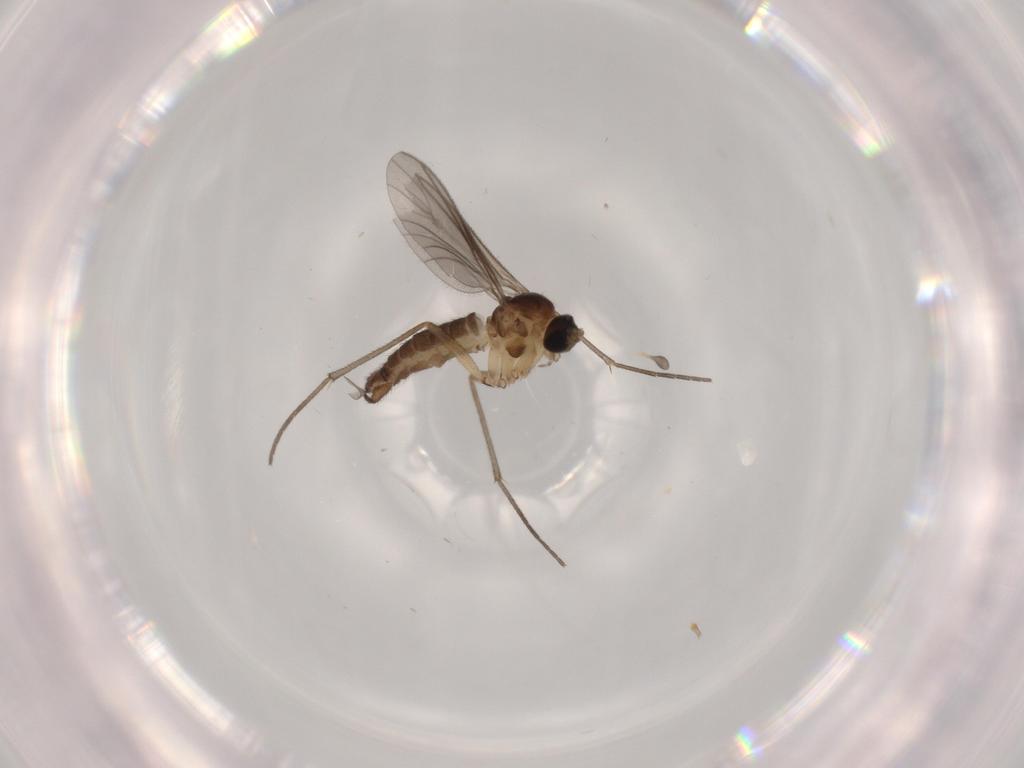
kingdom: Animalia
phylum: Arthropoda
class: Insecta
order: Diptera
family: Sciaridae
